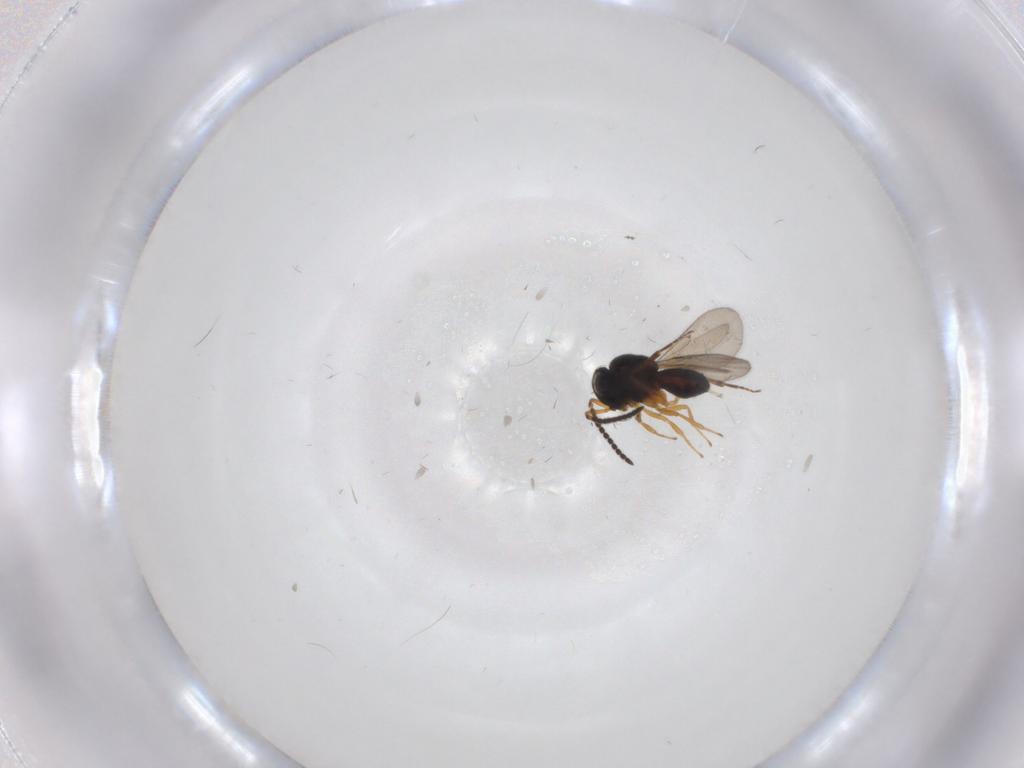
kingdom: Animalia
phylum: Arthropoda
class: Insecta
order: Hymenoptera
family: Scelionidae
